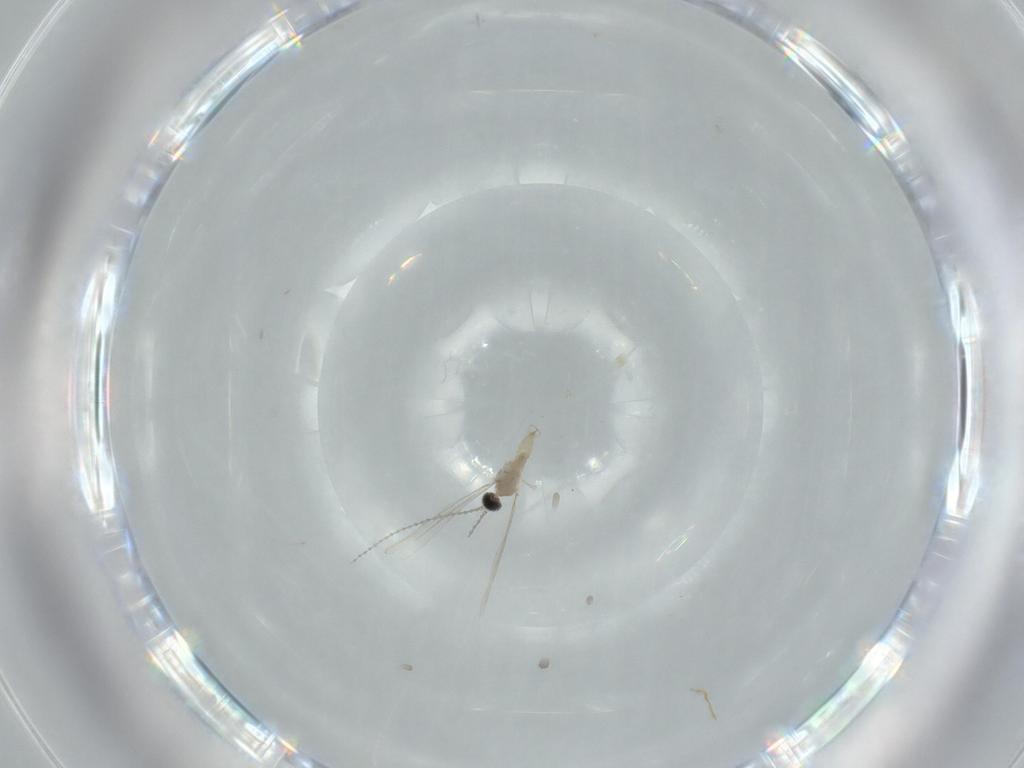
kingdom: Animalia
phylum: Arthropoda
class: Insecta
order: Diptera
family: Cecidomyiidae
